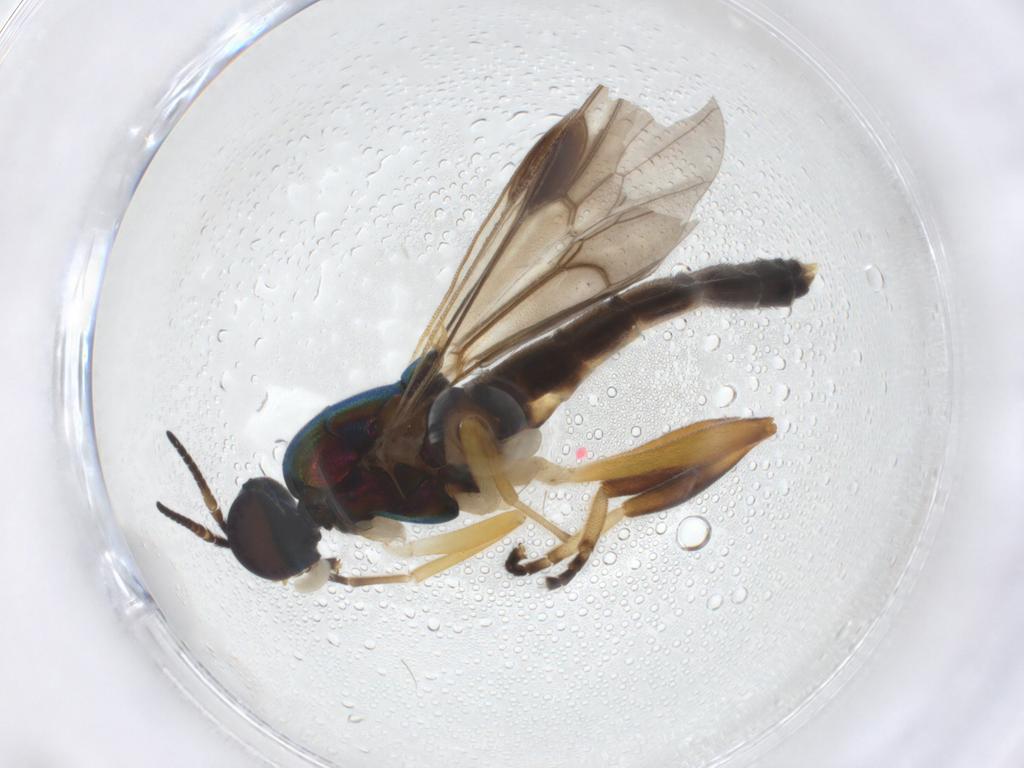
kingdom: Animalia
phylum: Arthropoda
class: Insecta
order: Diptera
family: Stratiomyidae
